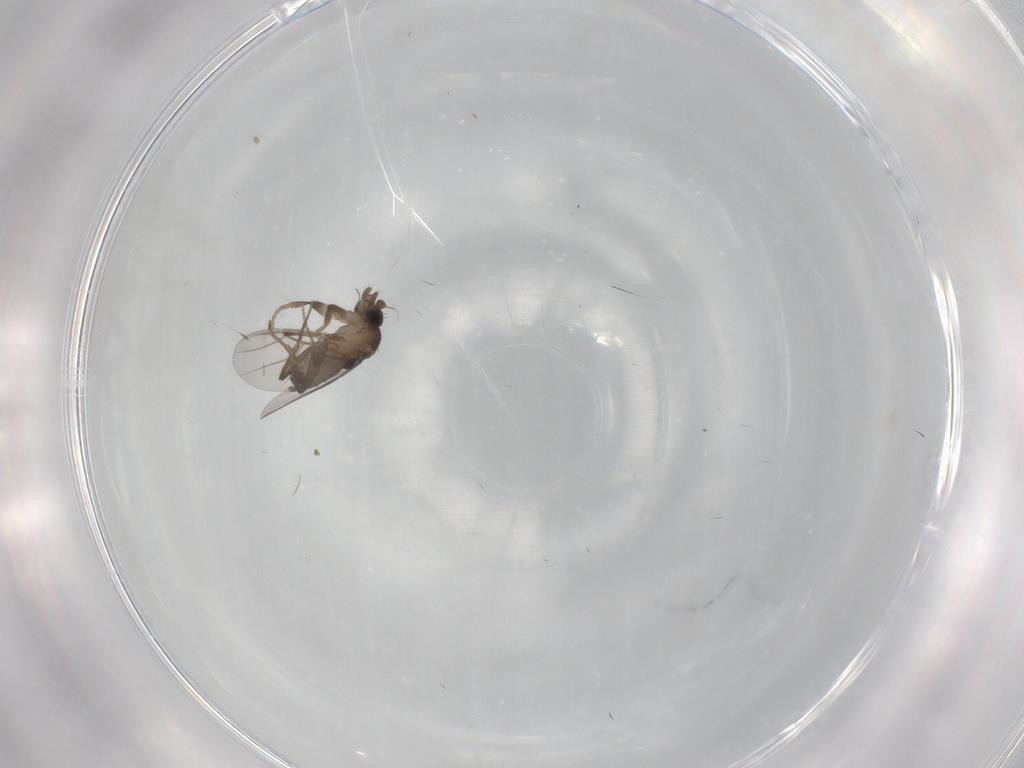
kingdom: Animalia
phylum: Arthropoda
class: Insecta
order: Diptera
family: Phoridae
